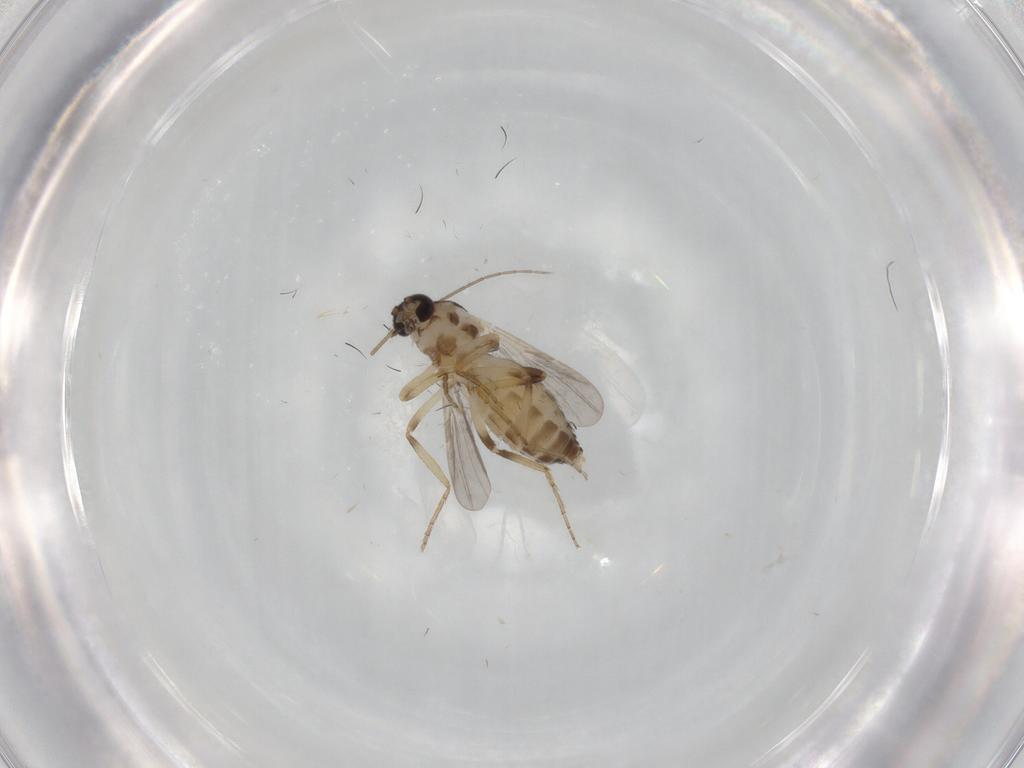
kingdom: Animalia
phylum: Arthropoda
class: Insecta
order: Diptera
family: Ceratopogonidae
